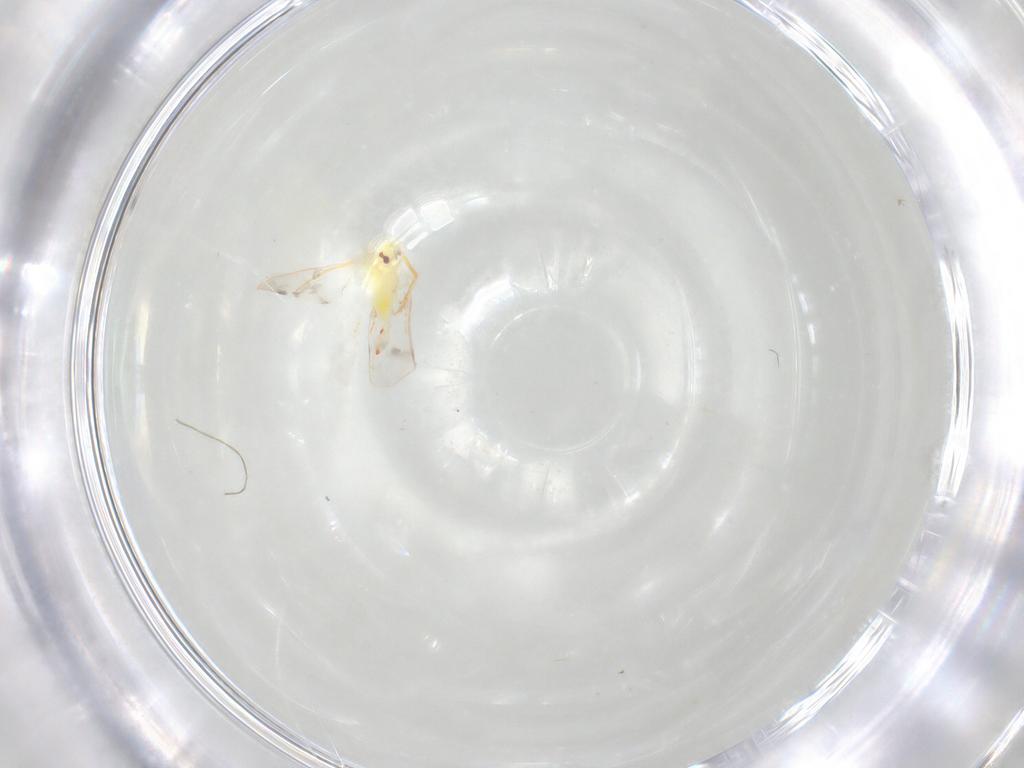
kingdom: Animalia
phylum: Arthropoda
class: Insecta
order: Hemiptera
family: Aleyrodidae
